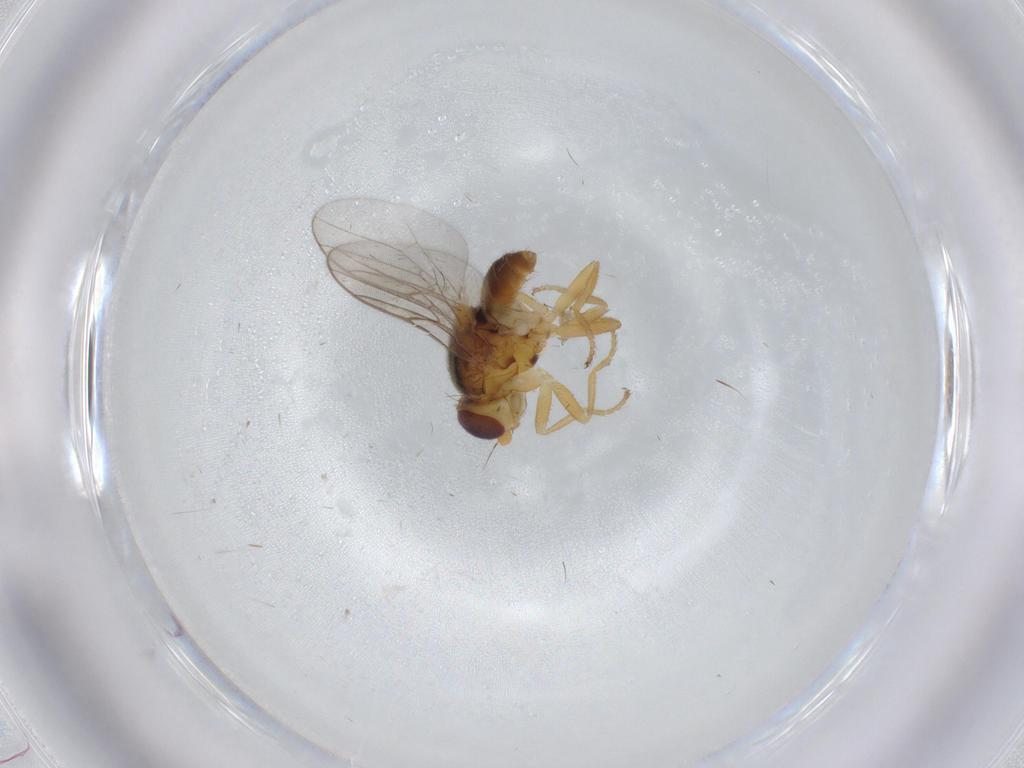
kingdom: Animalia
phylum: Arthropoda
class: Insecta
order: Diptera
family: Chloropidae
